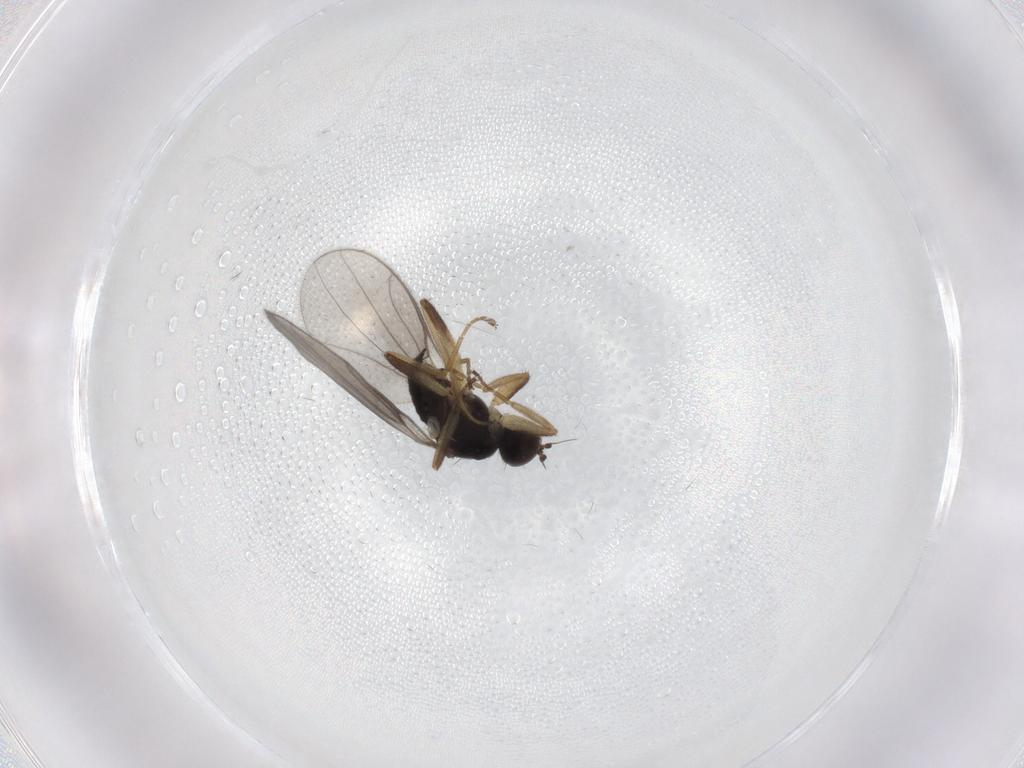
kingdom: Animalia
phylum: Arthropoda
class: Insecta
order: Diptera
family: Hybotidae
